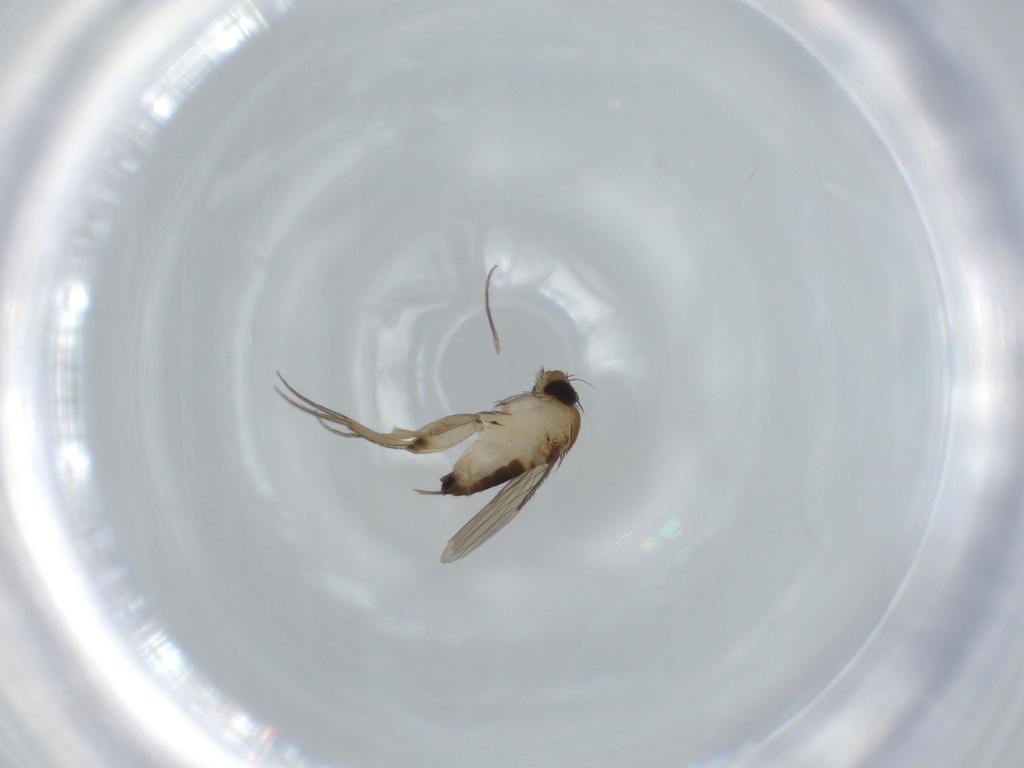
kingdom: Animalia
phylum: Arthropoda
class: Insecta
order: Diptera
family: Phoridae
